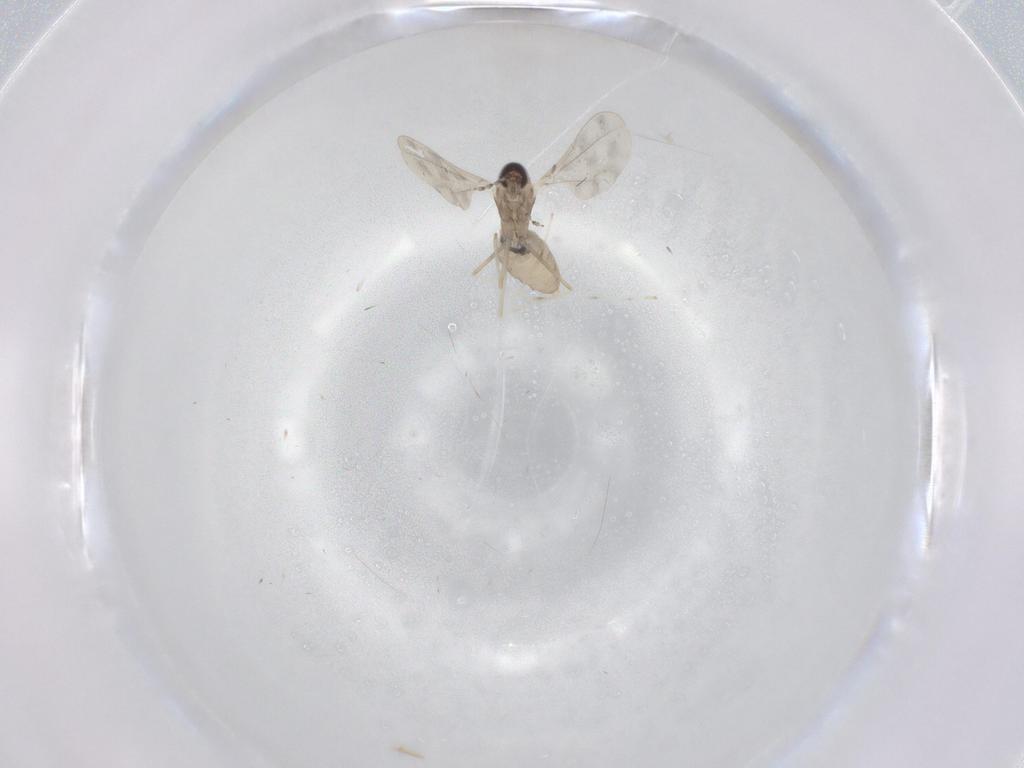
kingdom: Animalia
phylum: Arthropoda
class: Insecta
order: Diptera
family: Cecidomyiidae
